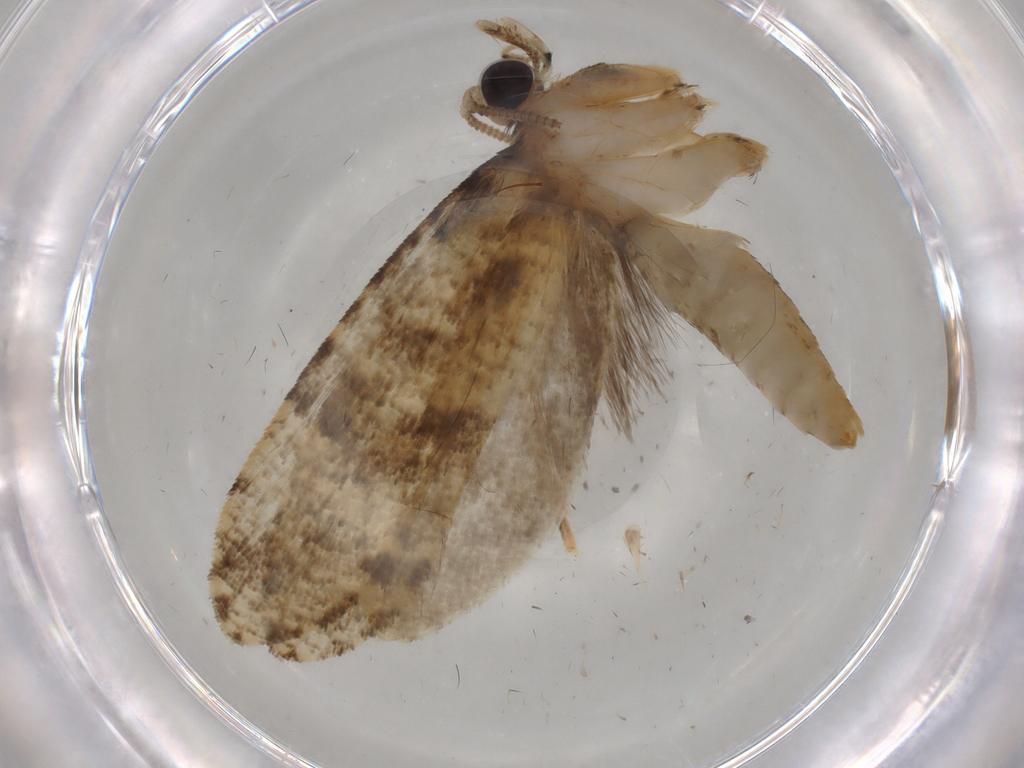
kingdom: Animalia
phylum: Arthropoda
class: Insecta
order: Diptera
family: Phoridae
